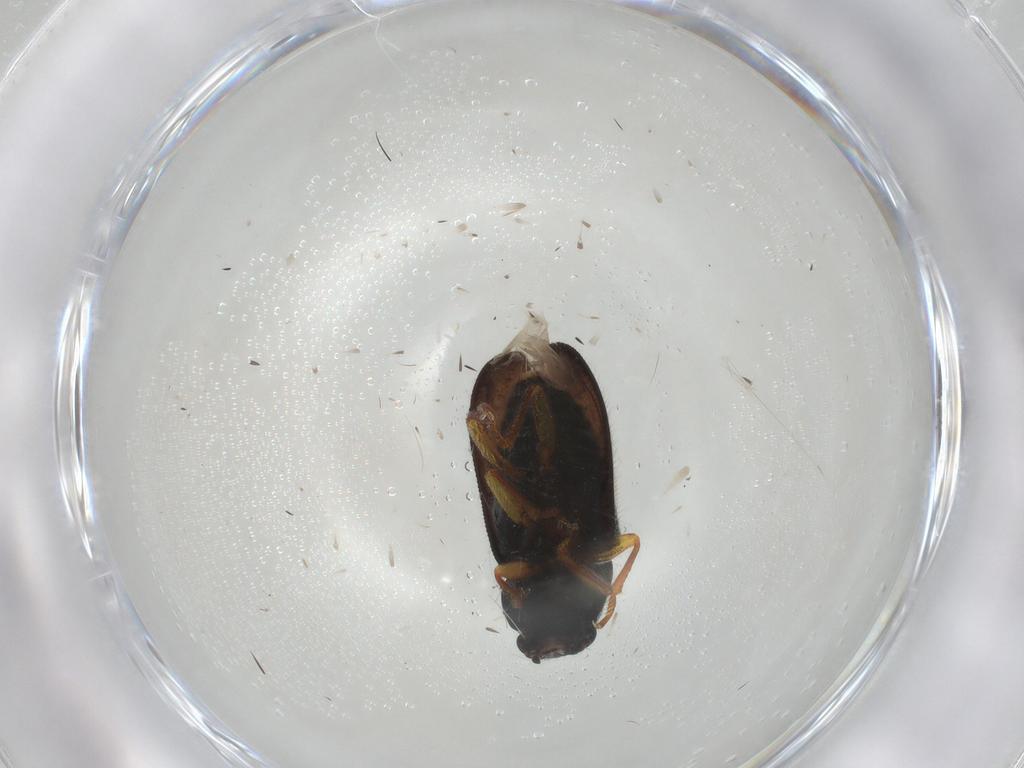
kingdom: Animalia
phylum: Arthropoda
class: Insecta
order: Coleoptera
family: Melyridae
